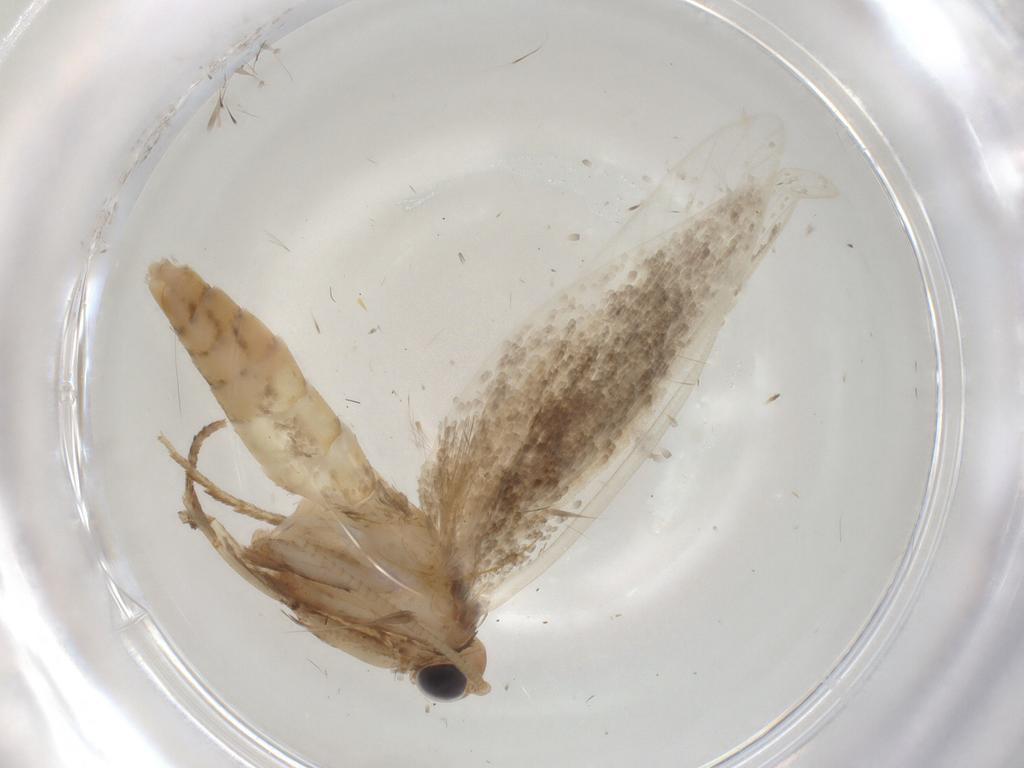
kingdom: Animalia
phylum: Arthropoda
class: Insecta
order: Lepidoptera
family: Gelechiidae
